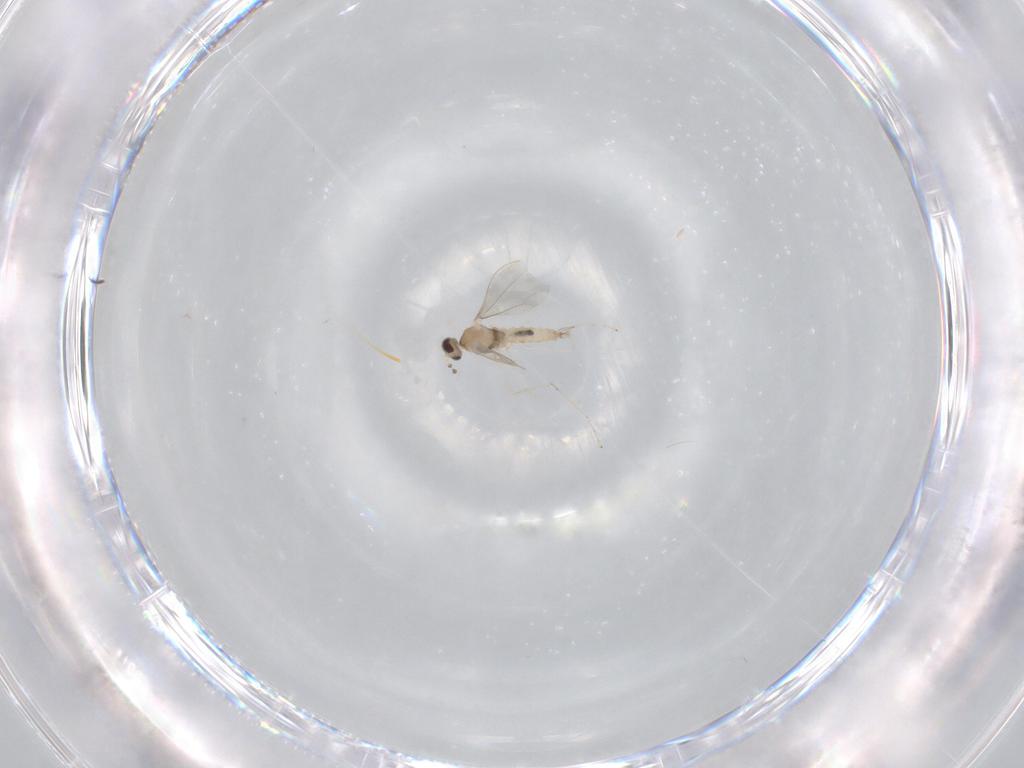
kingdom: Animalia
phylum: Arthropoda
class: Insecta
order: Diptera
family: Cecidomyiidae
